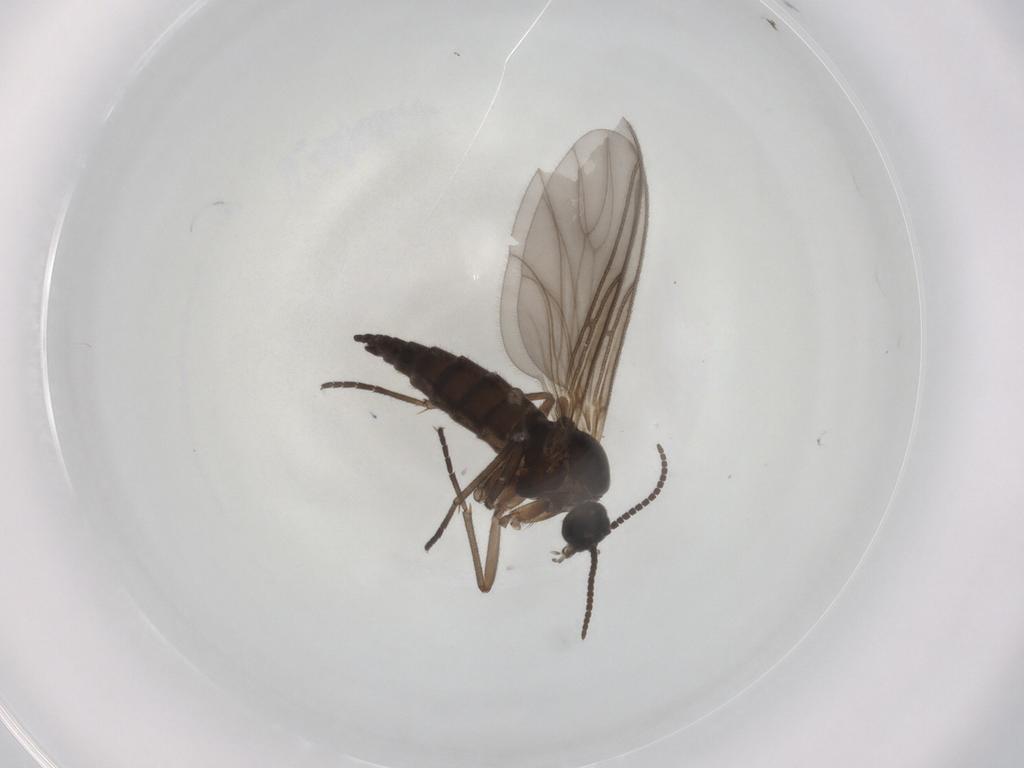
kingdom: Animalia
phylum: Arthropoda
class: Insecta
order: Diptera
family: Sciaridae
